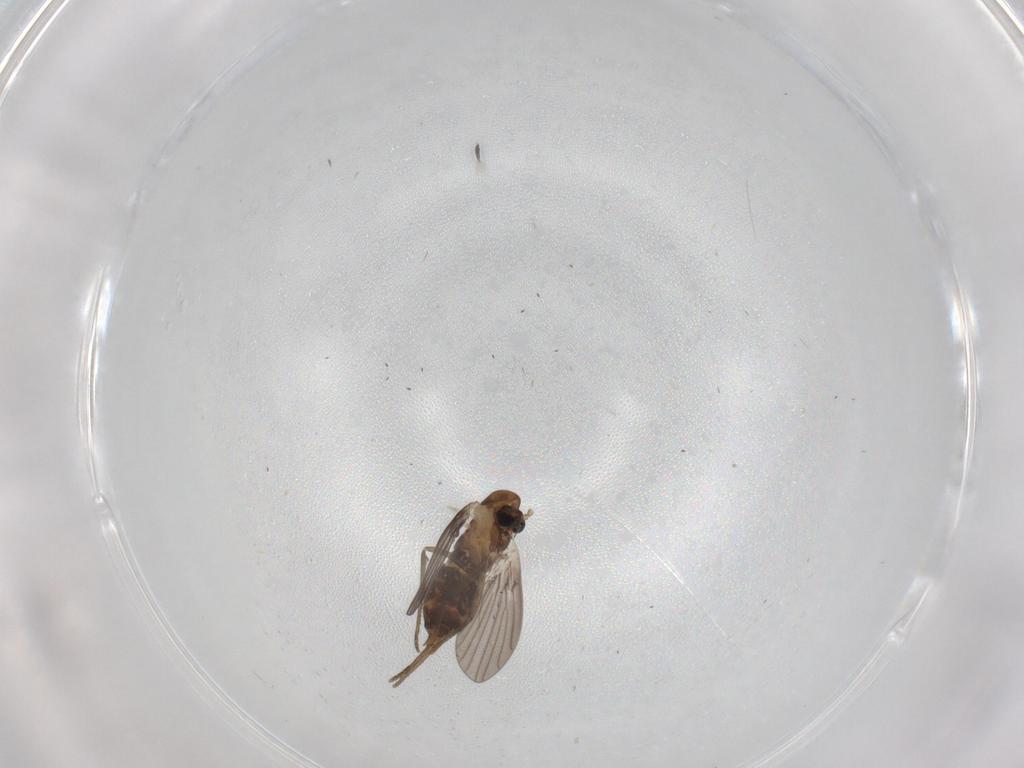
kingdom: Animalia
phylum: Arthropoda
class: Insecta
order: Diptera
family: Psychodidae
